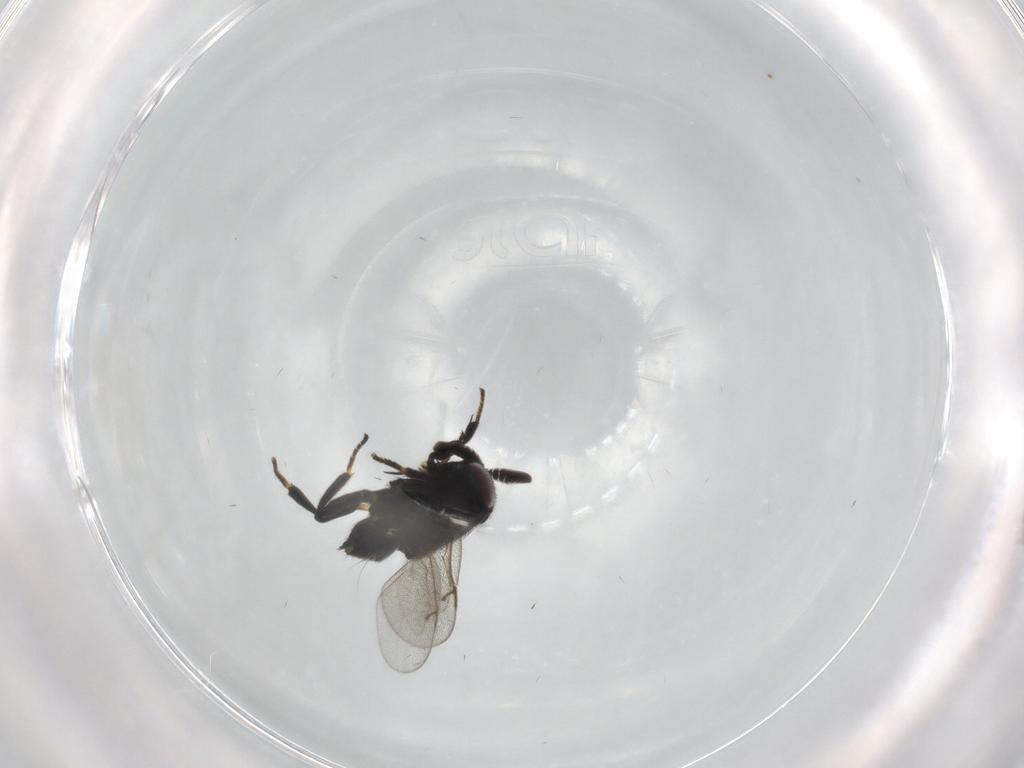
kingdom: Animalia
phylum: Arthropoda
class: Insecta
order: Hymenoptera
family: Encyrtidae
